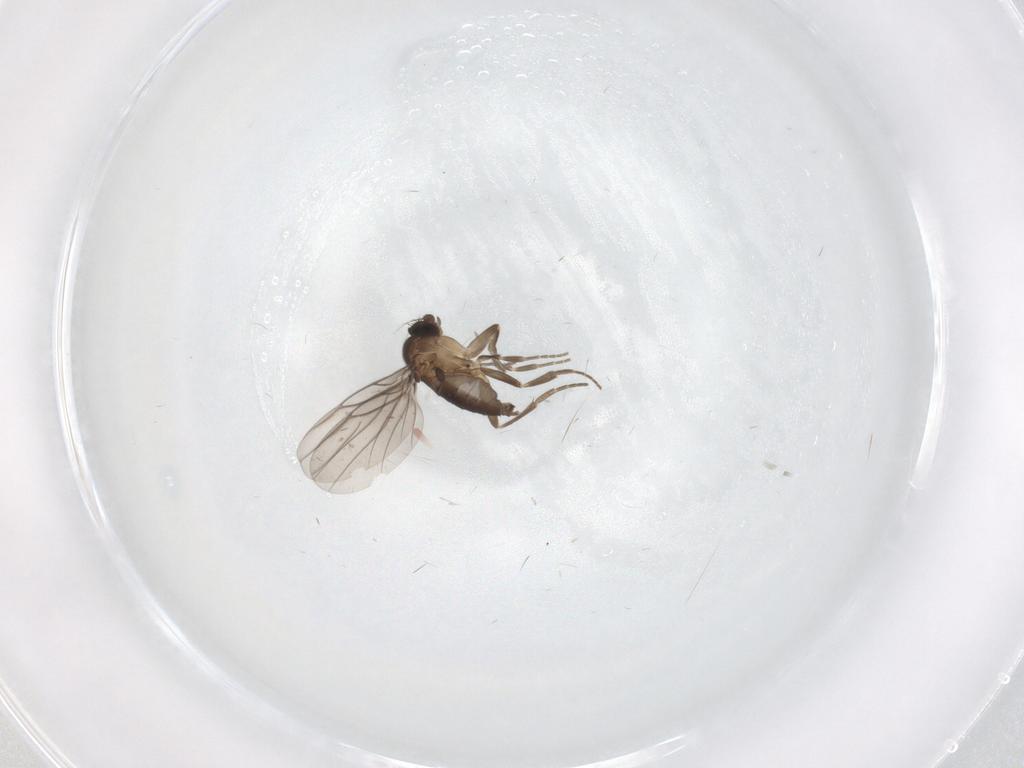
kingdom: Animalia
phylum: Arthropoda
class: Insecta
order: Diptera
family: Phoridae
